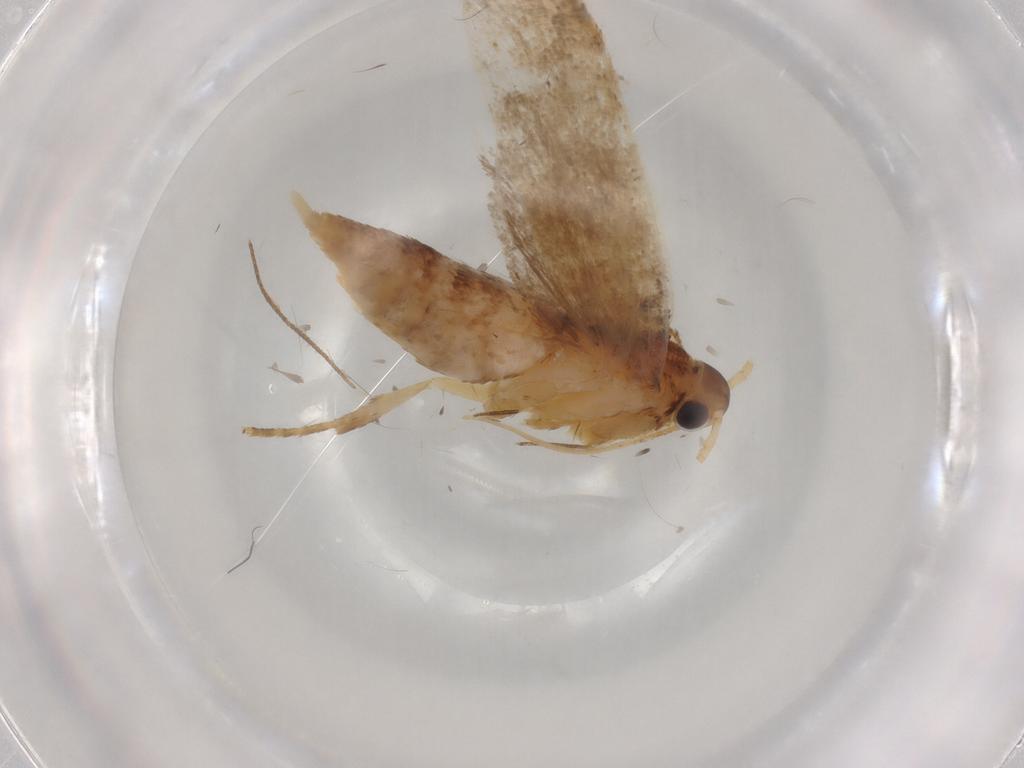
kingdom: Animalia
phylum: Arthropoda
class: Insecta
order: Lepidoptera
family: Lecithoceridae
